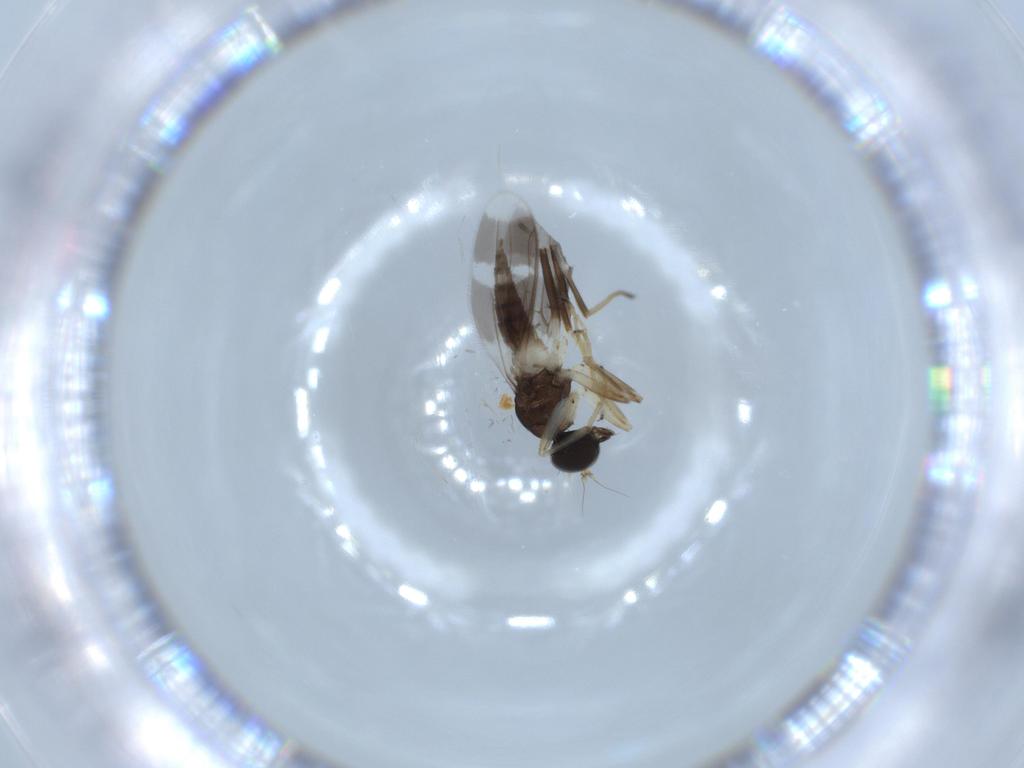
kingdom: Animalia
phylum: Arthropoda
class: Insecta
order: Diptera
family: Hybotidae
